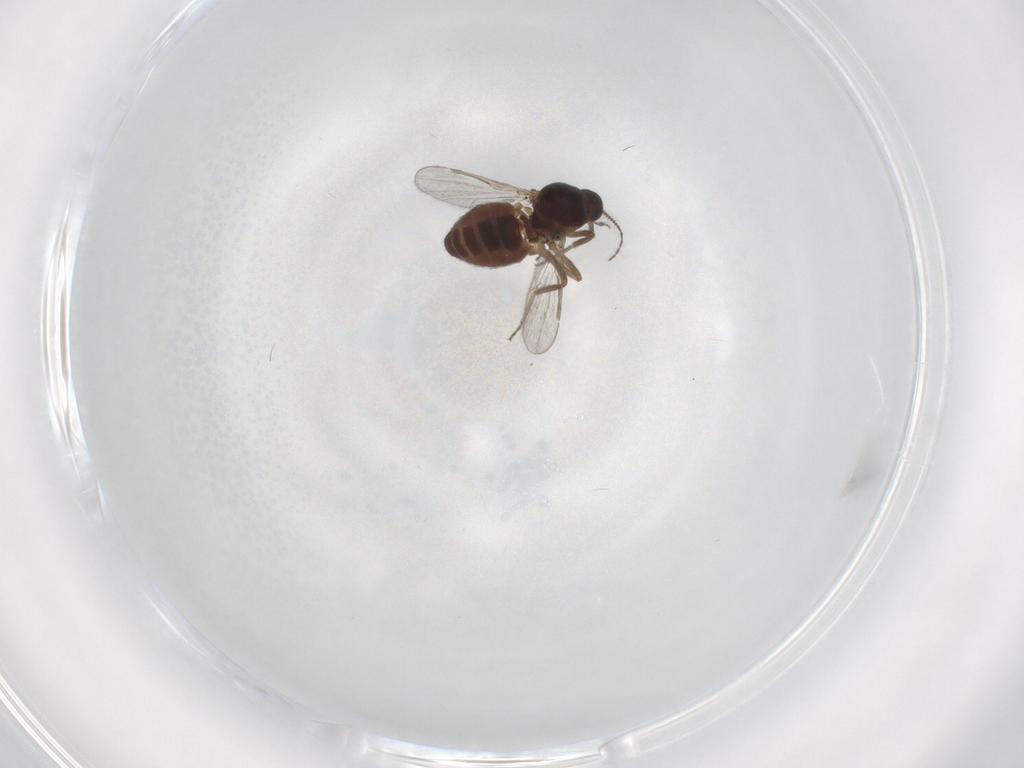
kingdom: Animalia
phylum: Arthropoda
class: Insecta
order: Diptera
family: Ceratopogonidae
